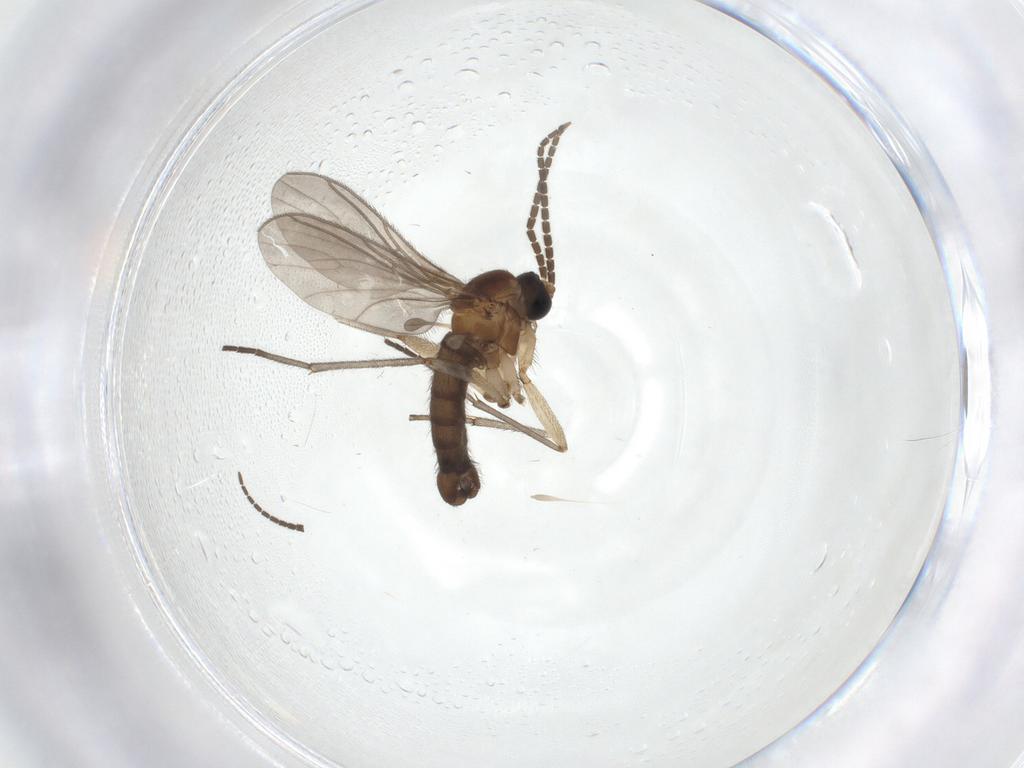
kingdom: Animalia
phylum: Arthropoda
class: Insecta
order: Diptera
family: Sciaridae
